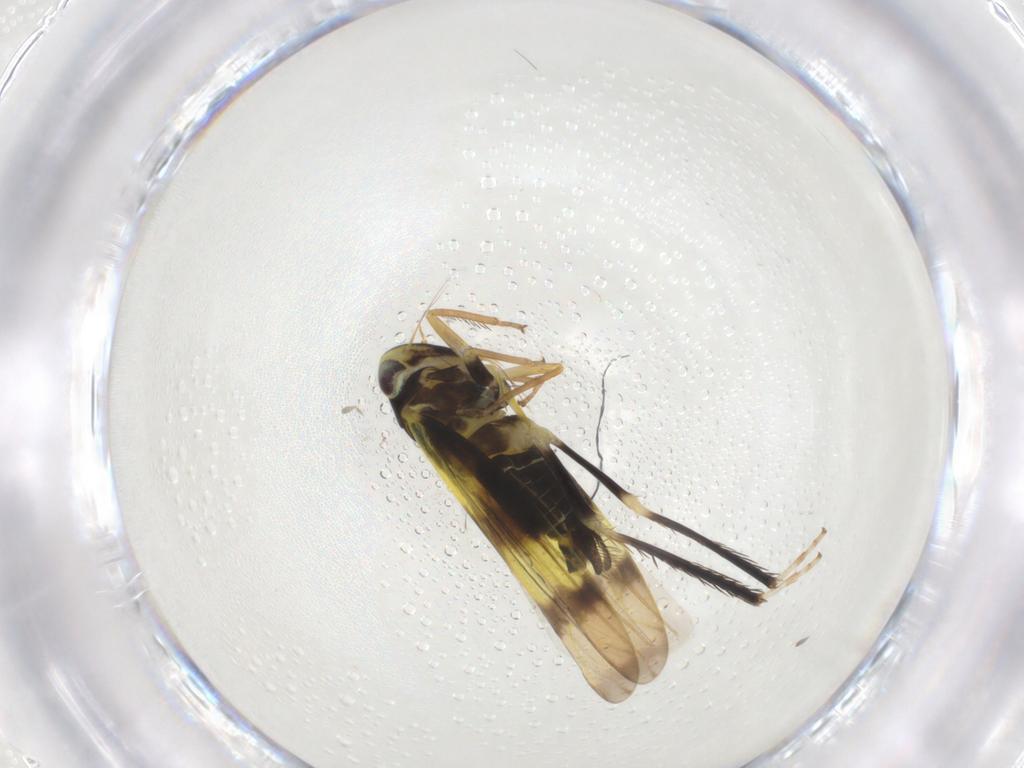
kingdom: Animalia
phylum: Arthropoda
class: Insecta
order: Hemiptera
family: Cicadellidae
